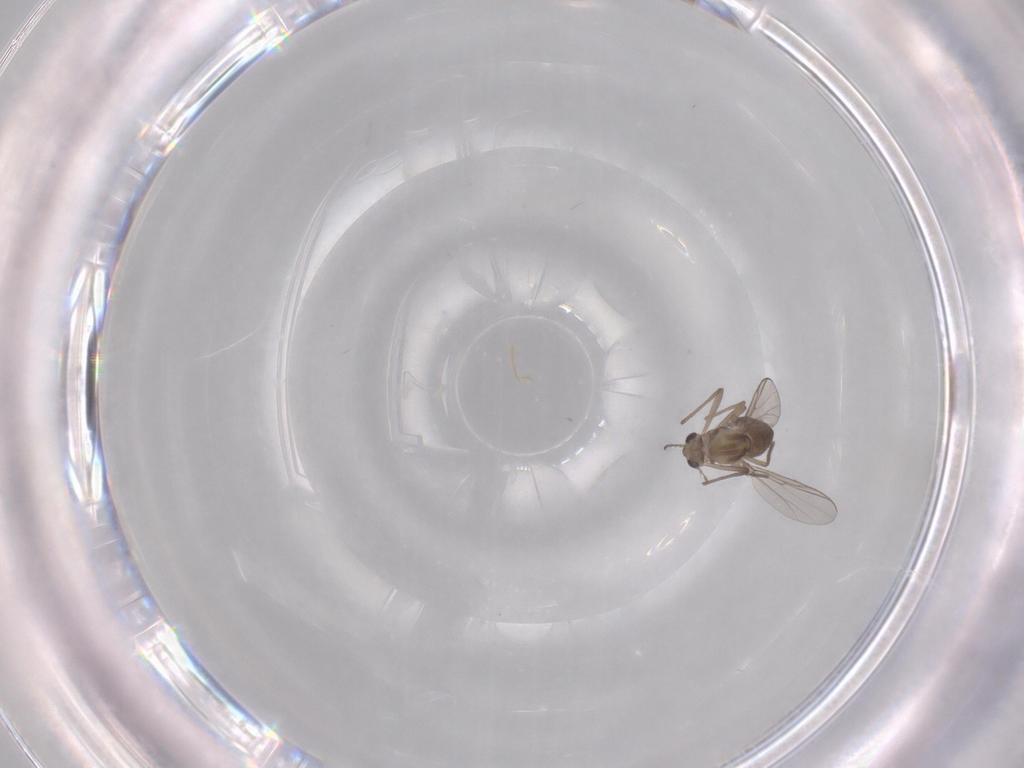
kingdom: Animalia
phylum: Arthropoda
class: Insecta
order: Diptera
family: Chironomidae
